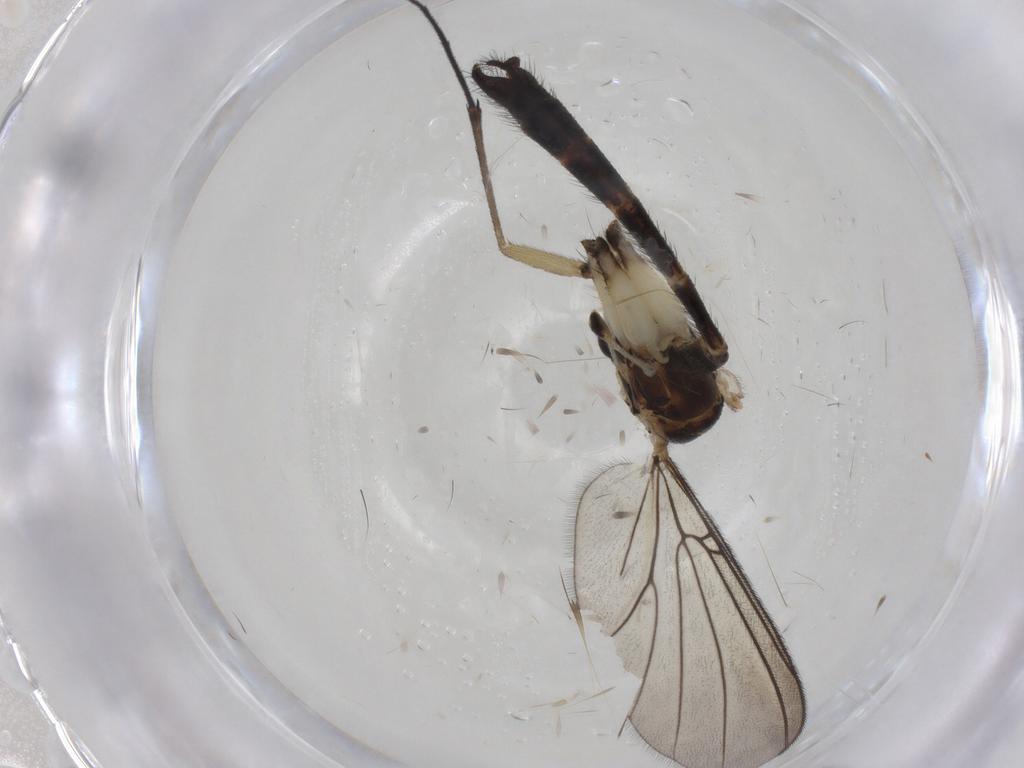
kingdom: Animalia
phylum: Arthropoda
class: Insecta
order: Diptera
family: Mycetophilidae
